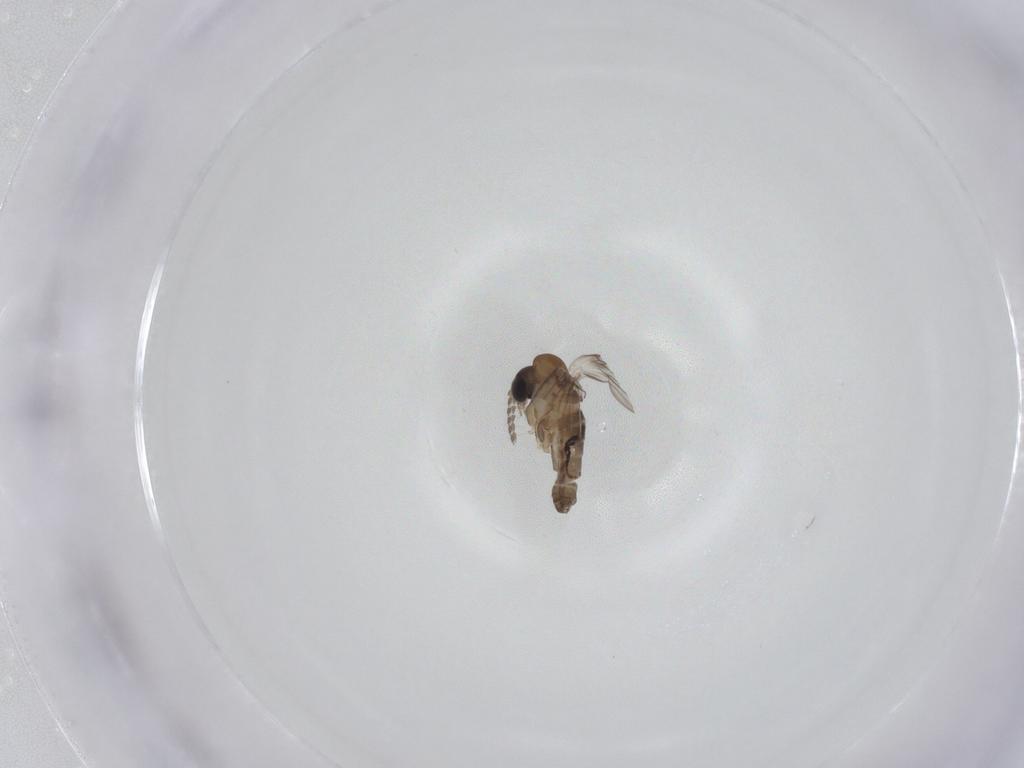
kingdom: Animalia
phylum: Arthropoda
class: Insecta
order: Diptera
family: Psychodidae
